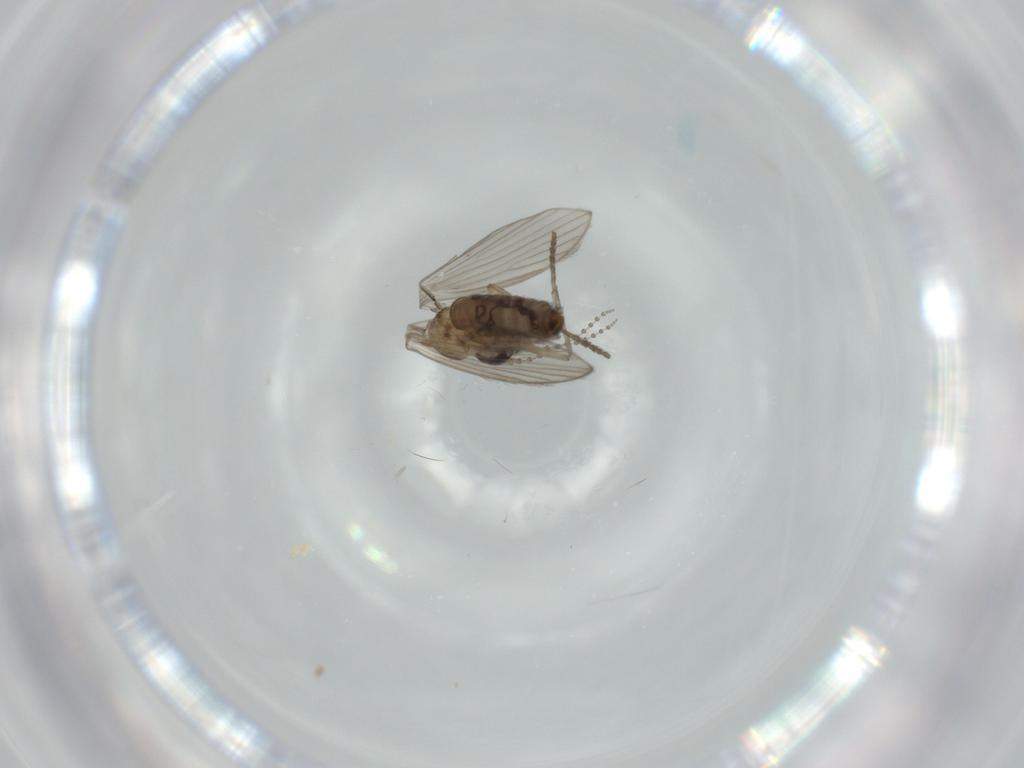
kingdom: Animalia
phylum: Arthropoda
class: Insecta
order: Diptera
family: Psychodidae
